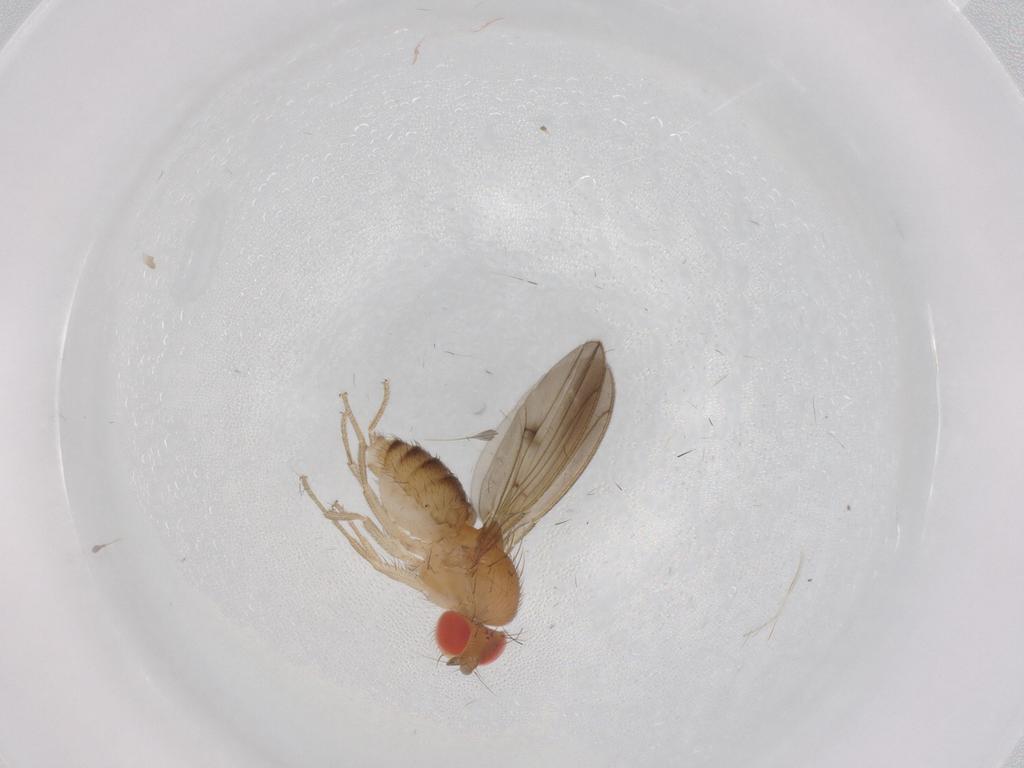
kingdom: Animalia
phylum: Arthropoda
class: Insecta
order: Diptera
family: Drosophilidae
